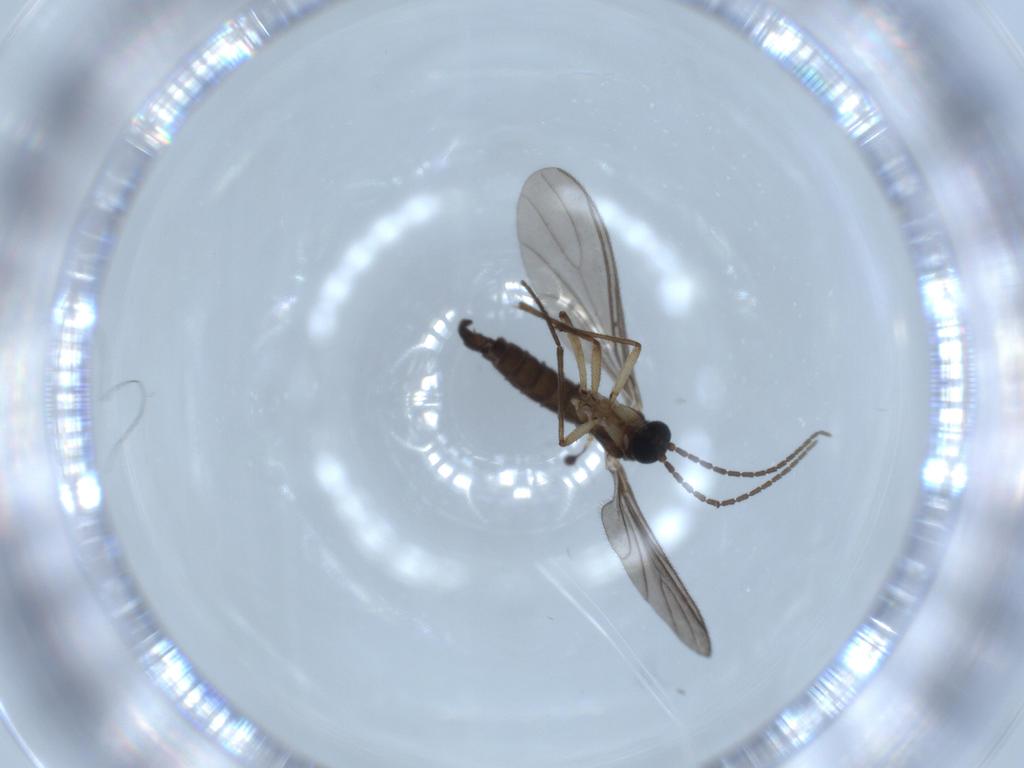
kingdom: Animalia
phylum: Arthropoda
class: Insecta
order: Diptera
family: Sciaridae
